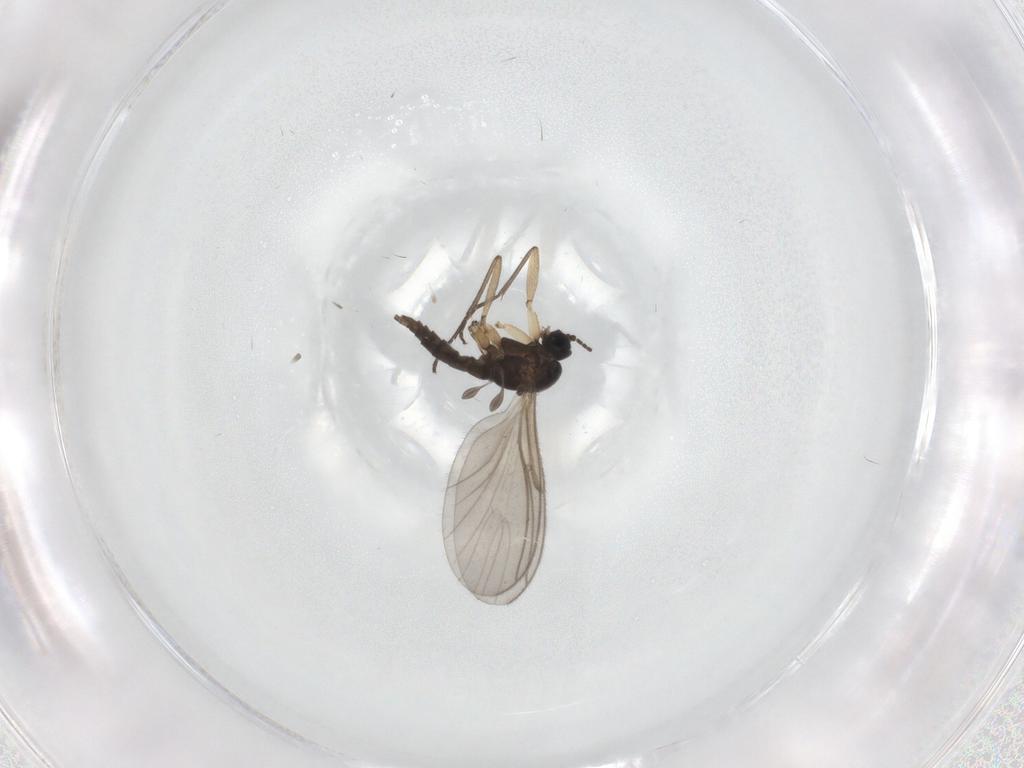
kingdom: Animalia
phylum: Arthropoda
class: Insecta
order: Diptera
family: Sciaridae
